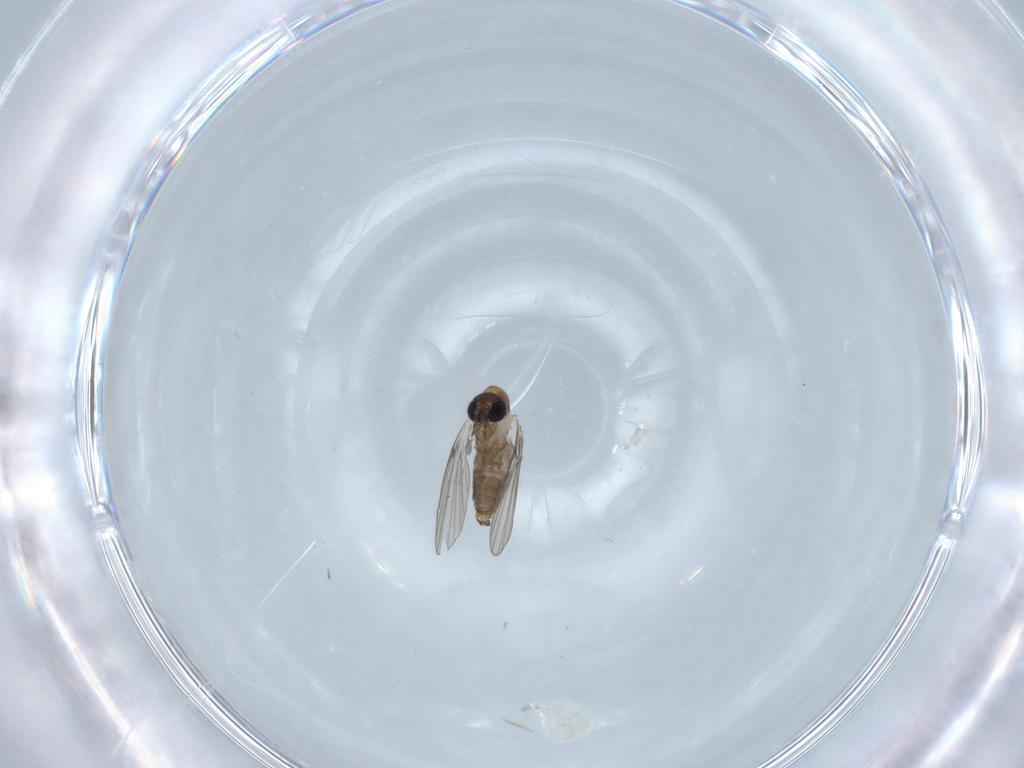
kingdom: Animalia
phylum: Arthropoda
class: Insecta
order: Diptera
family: Psychodidae
